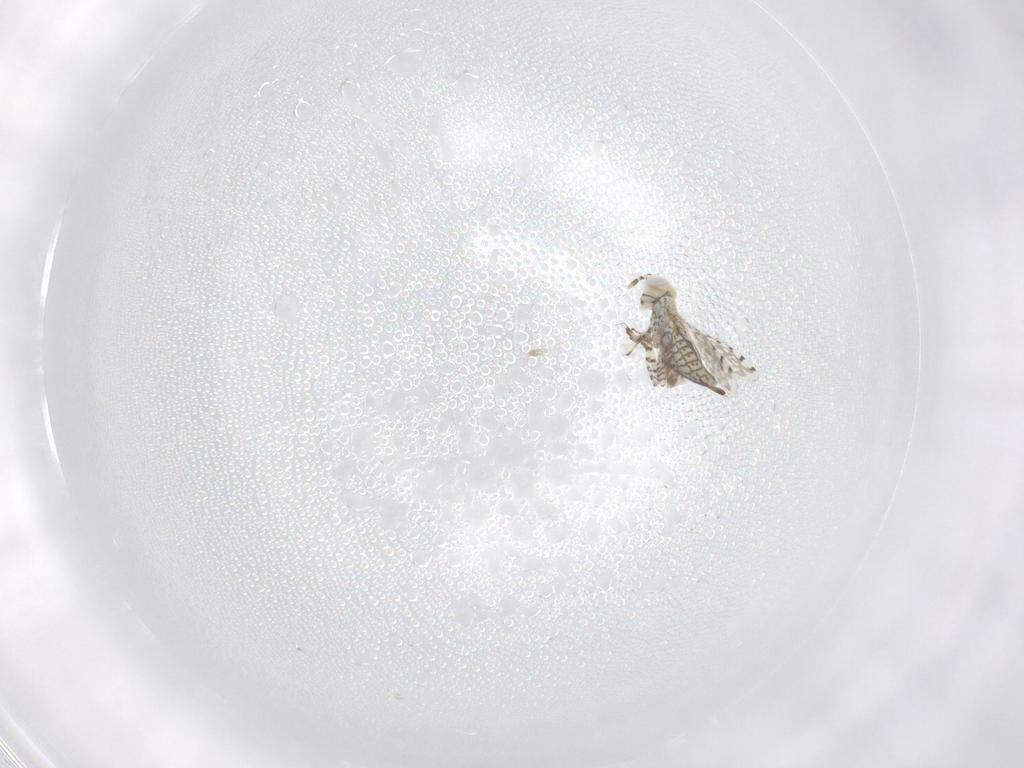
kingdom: Animalia
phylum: Arthropoda
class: Insecta
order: Hymenoptera
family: Aphelinidae
